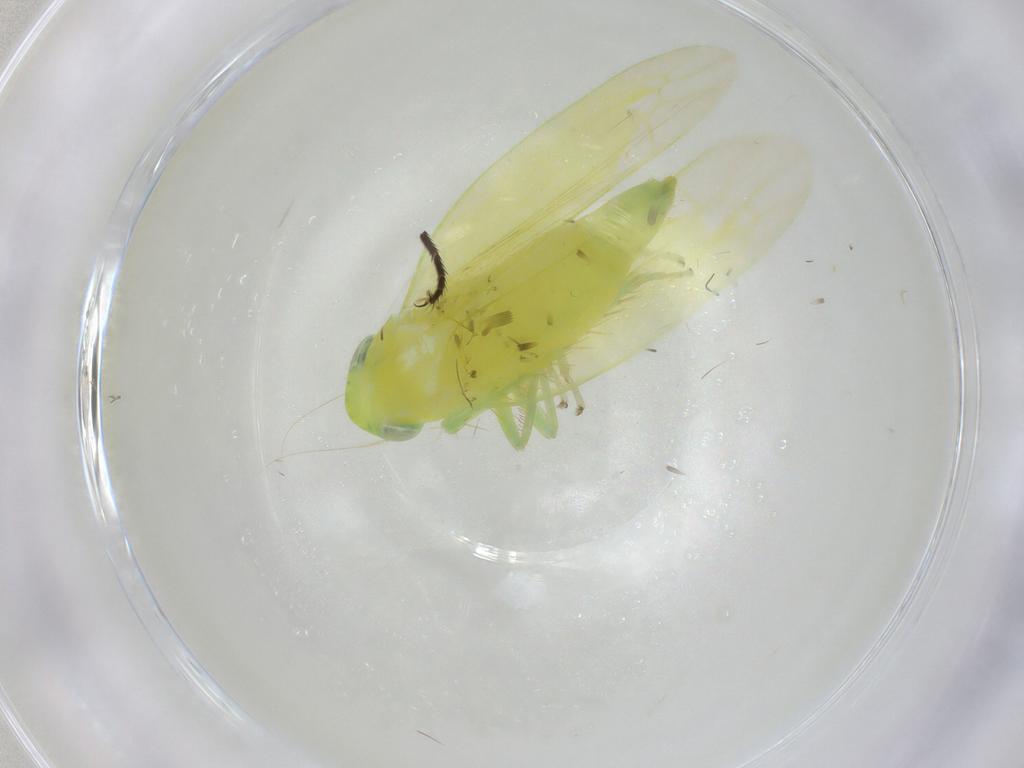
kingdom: Animalia
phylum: Arthropoda
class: Insecta
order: Hemiptera
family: Cicadellidae
